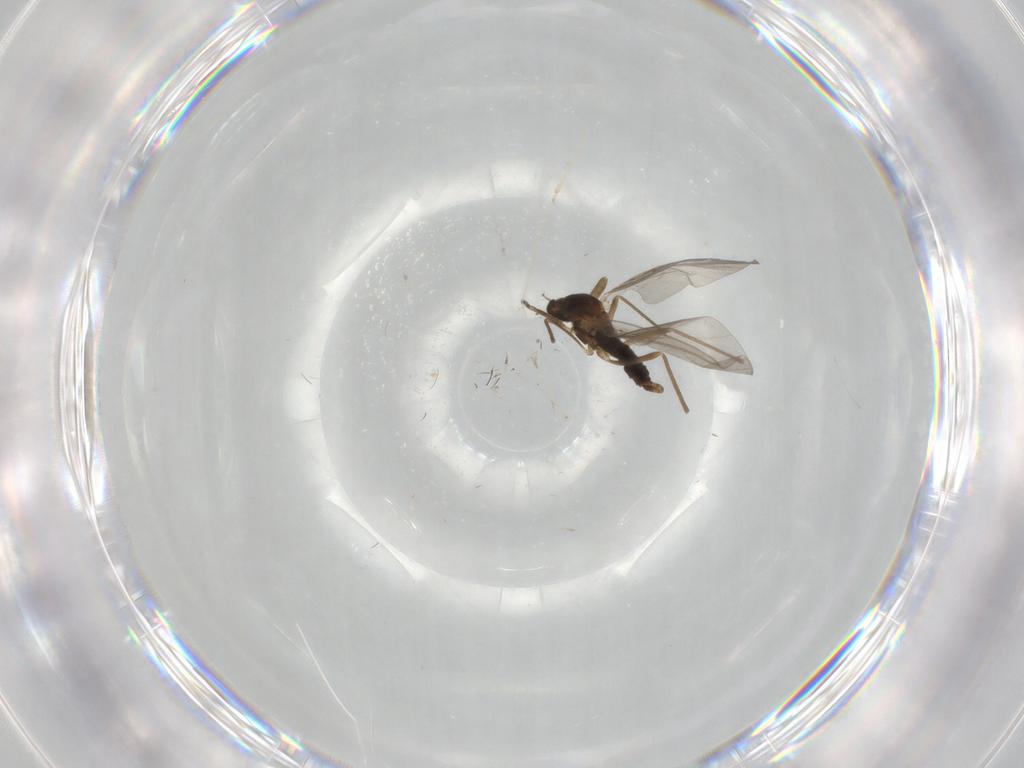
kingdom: Animalia
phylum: Arthropoda
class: Insecta
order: Diptera
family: Cecidomyiidae
